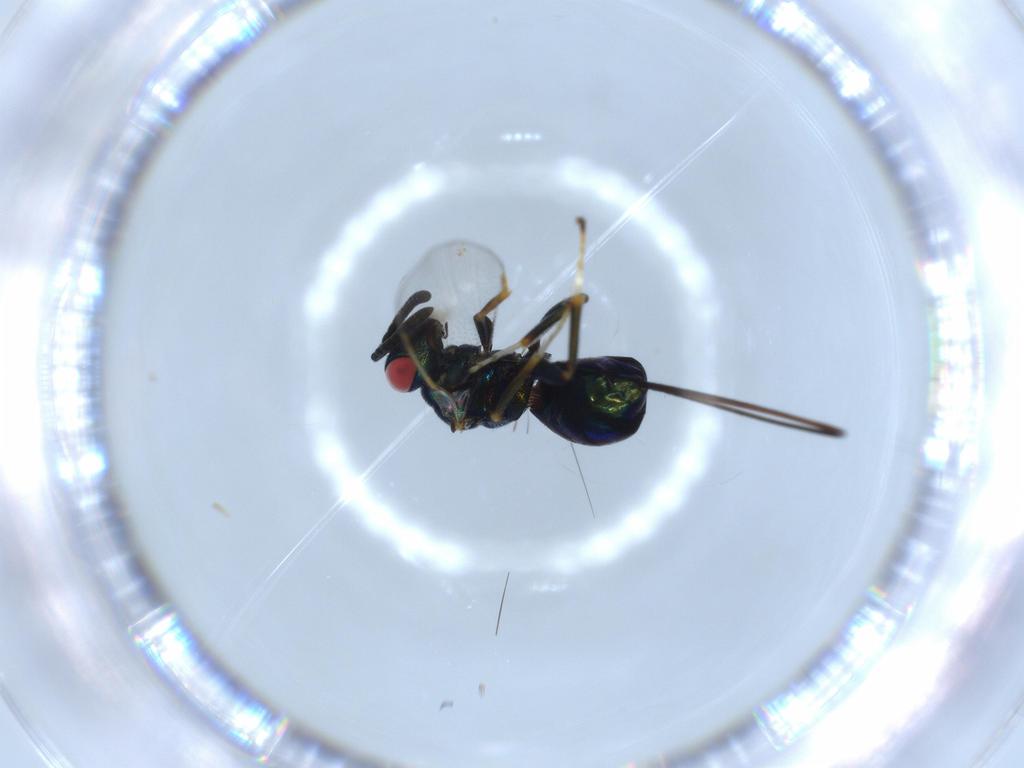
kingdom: Animalia
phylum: Arthropoda
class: Insecta
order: Hymenoptera
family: Torymidae
